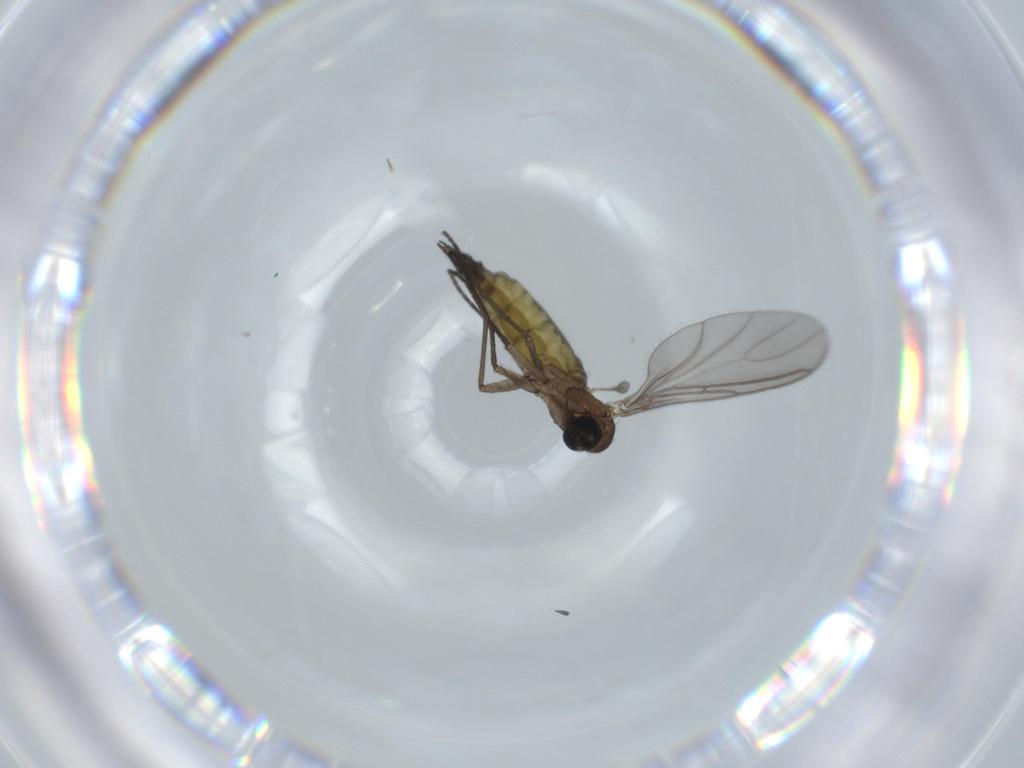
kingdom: Animalia
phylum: Arthropoda
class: Insecta
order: Diptera
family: Sciaridae
